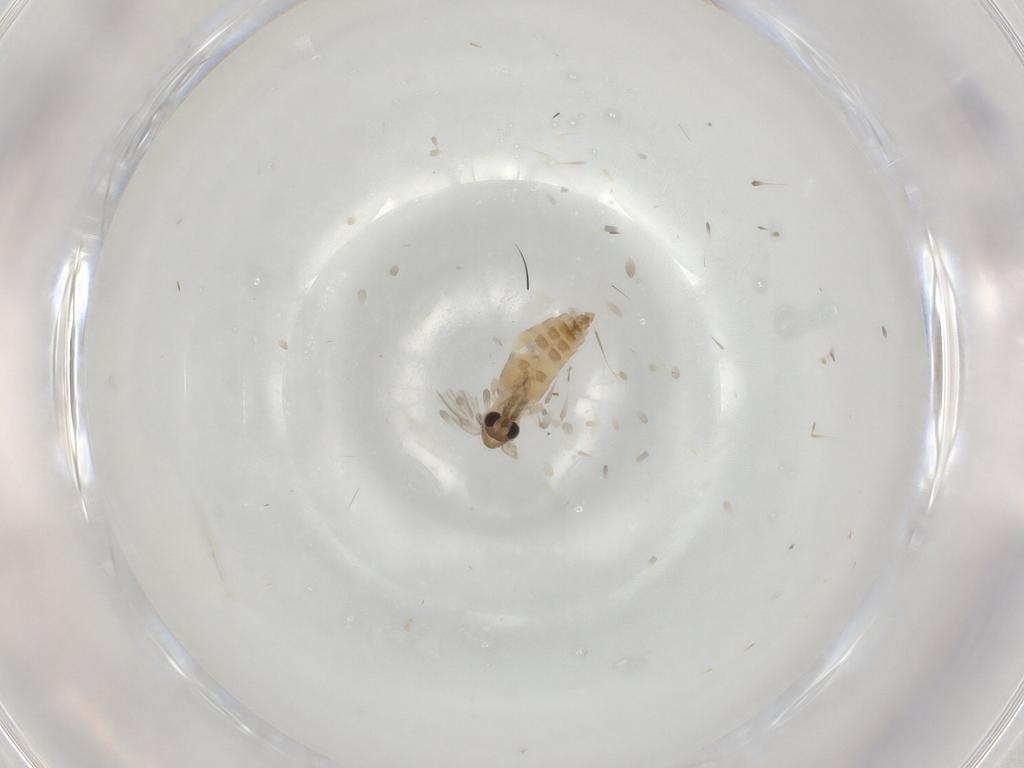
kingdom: Animalia
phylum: Arthropoda
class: Insecta
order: Diptera
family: Psychodidae
